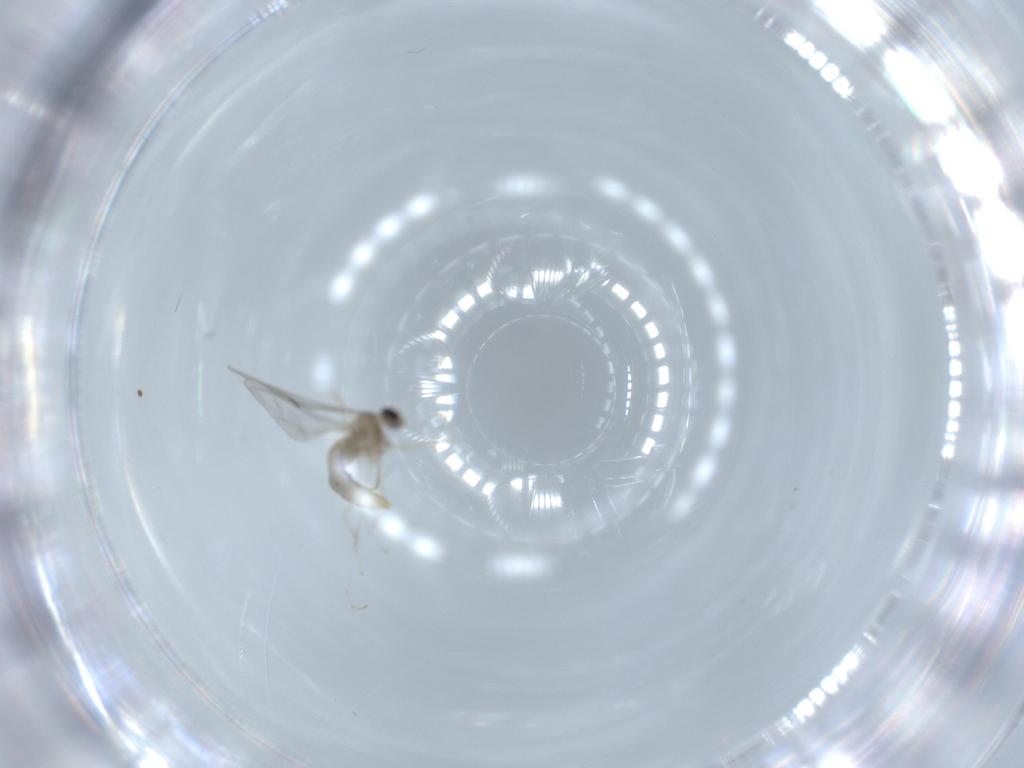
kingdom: Animalia
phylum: Arthropoda
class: Insecta
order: Diptera
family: Cecidomyiidae
